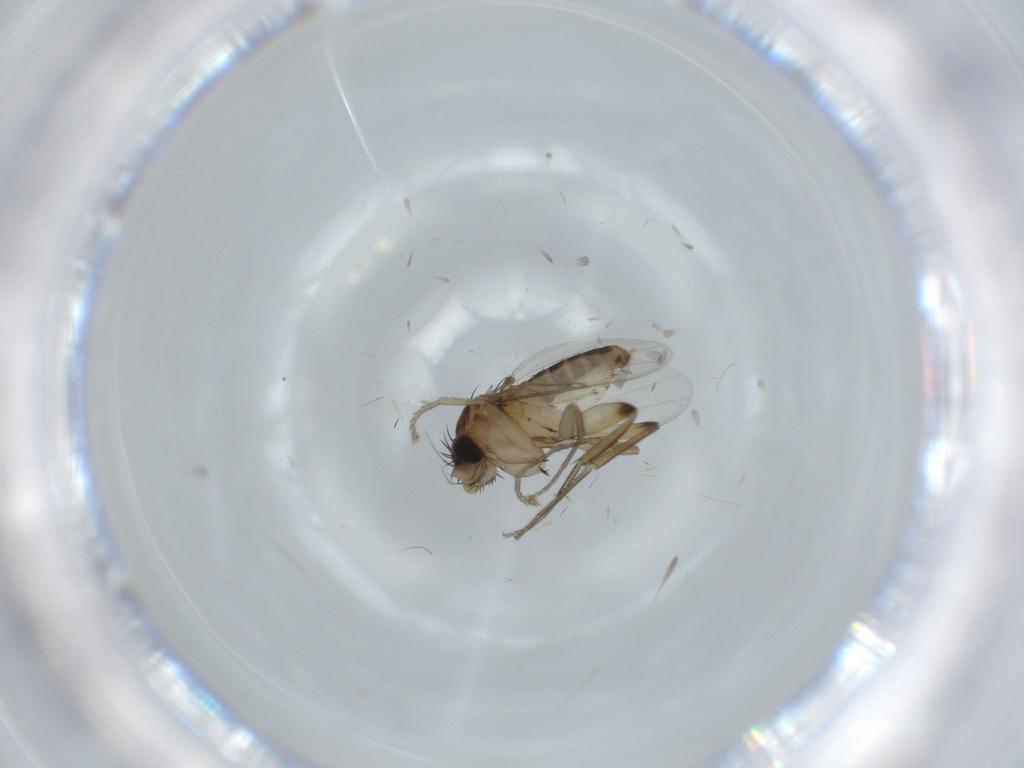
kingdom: Animalia
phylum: Arthropoda
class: Insecta
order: Diptera
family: Phoridae
